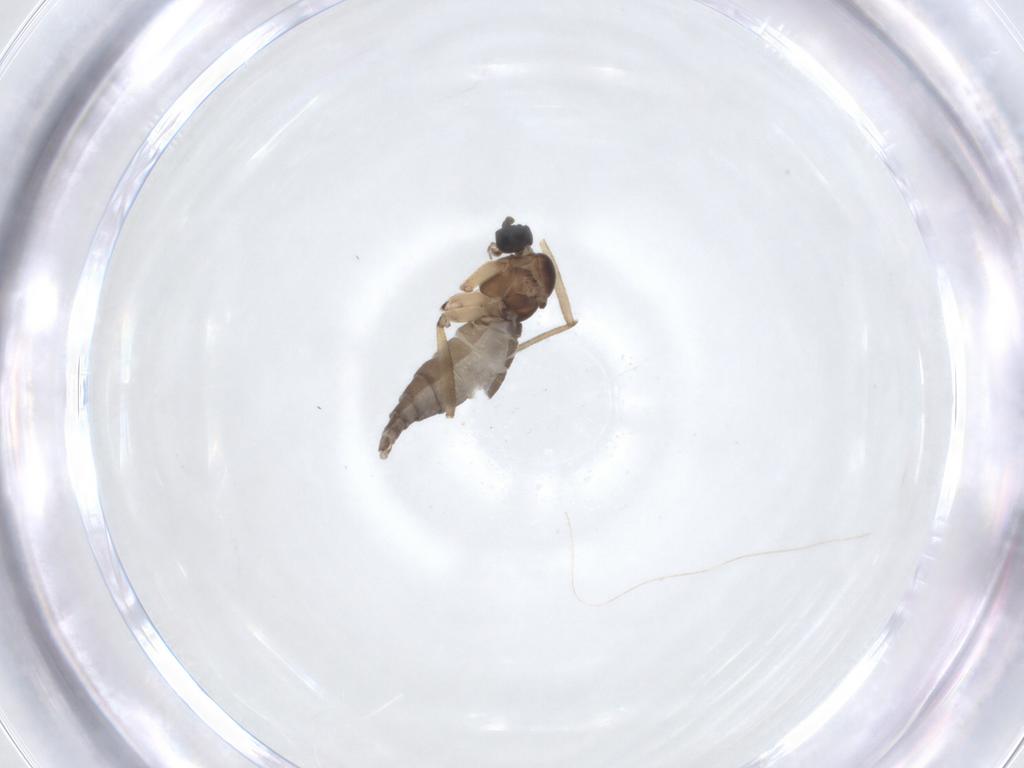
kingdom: Animalia
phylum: Arthropoda
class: Insecta
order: Diptera
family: Sciaridae
